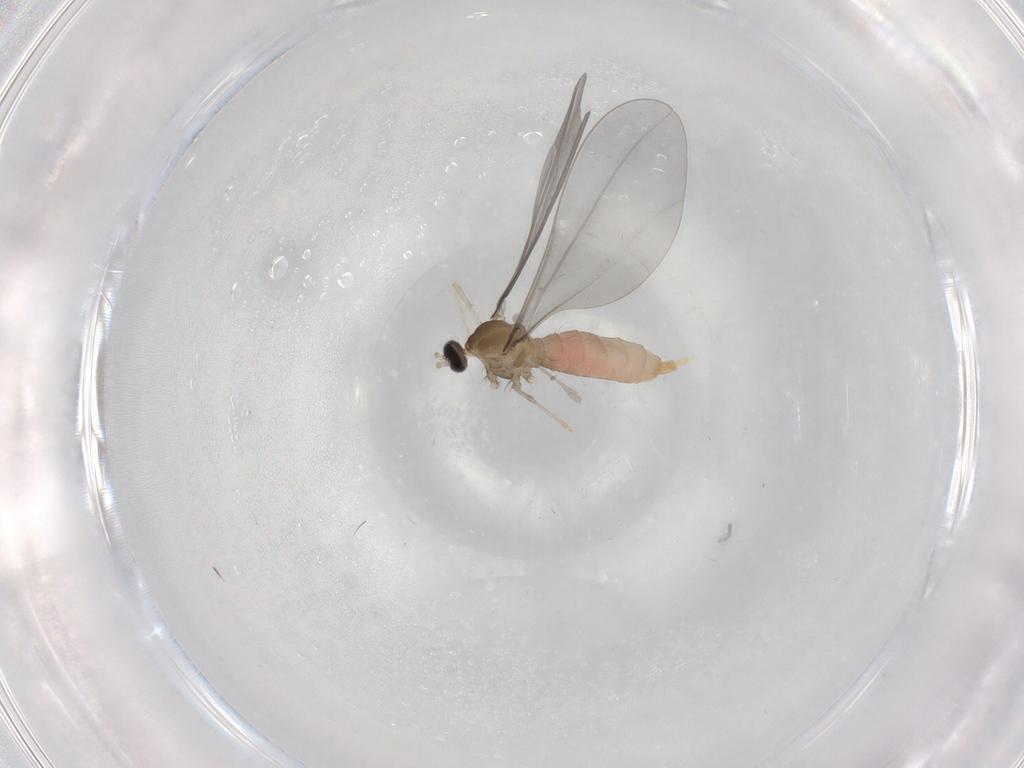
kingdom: Animalia
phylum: Arthropoda
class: Insecta
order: Diptera
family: Cecidomyiidae
